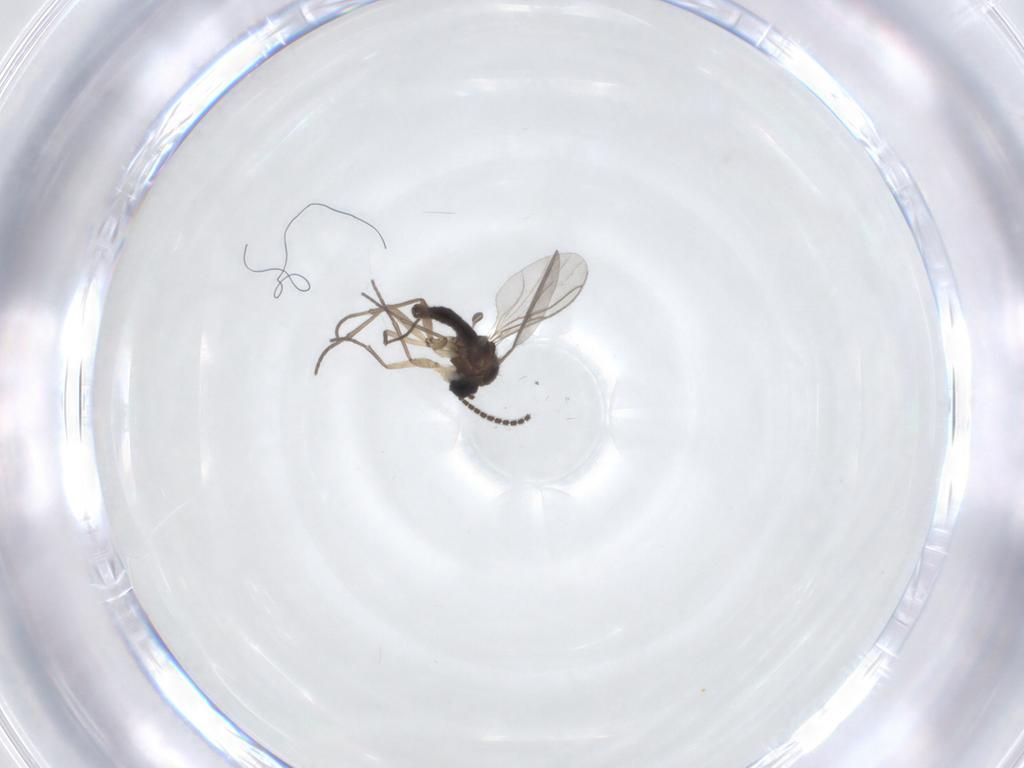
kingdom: Animalia
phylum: Arthropoda
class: Insecta
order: Diptera
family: Sciaridae
